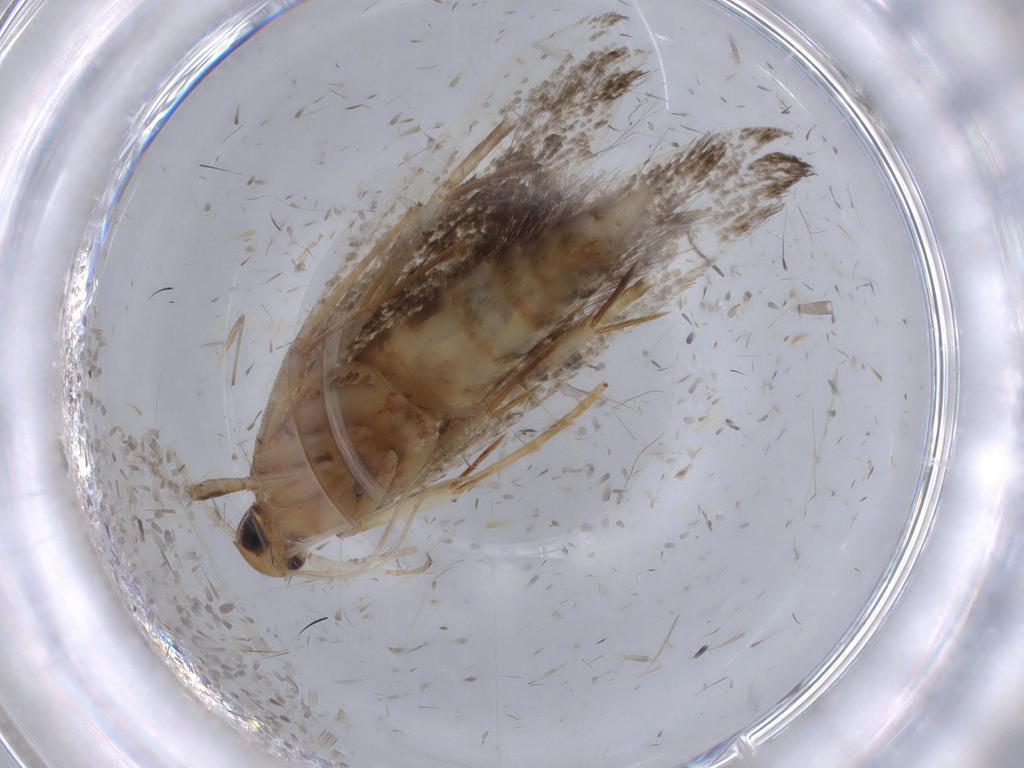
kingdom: Animalia
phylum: Arthropoda
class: Insecta
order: Lepidoptera
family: Cosmopterigidae
